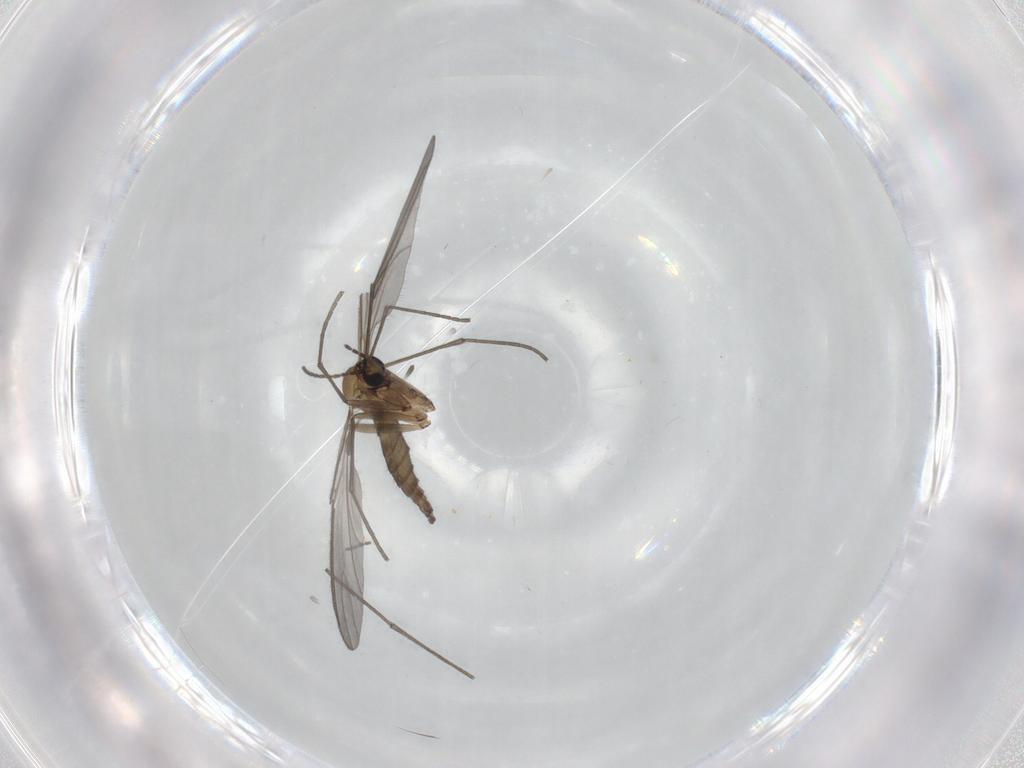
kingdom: Animalia
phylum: Arthropoda
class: Insecta
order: Diptera
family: Sciaridae
